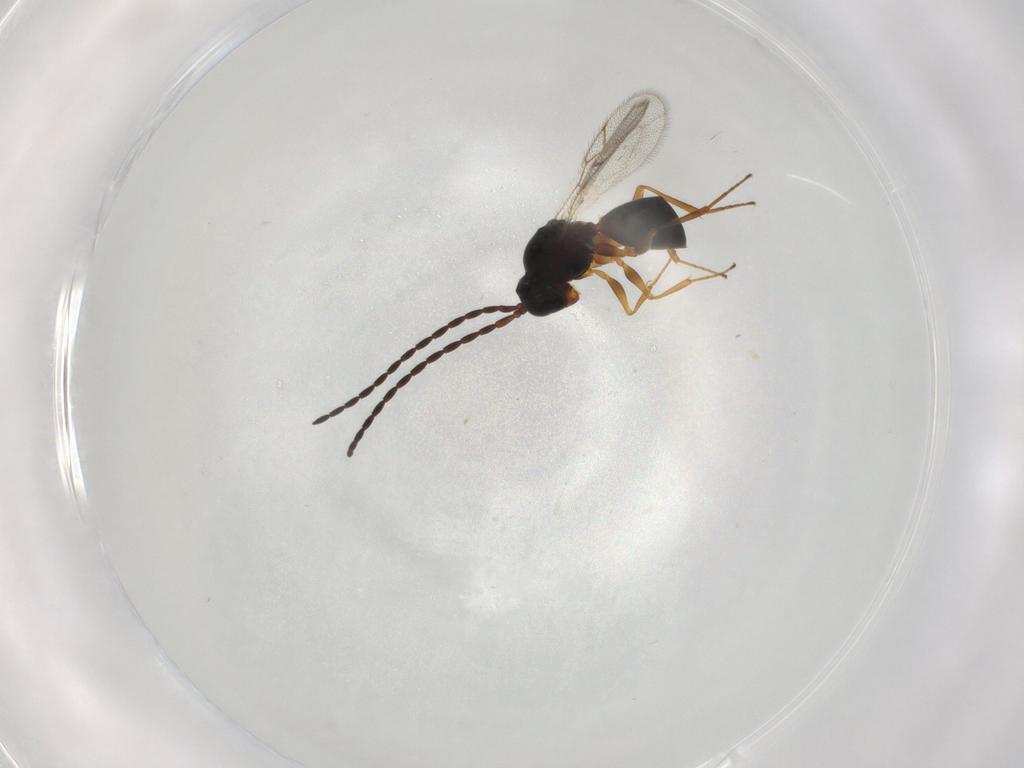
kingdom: Animalia
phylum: Arthropoda
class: Insecta
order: Hymenoptera
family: Figitidae
